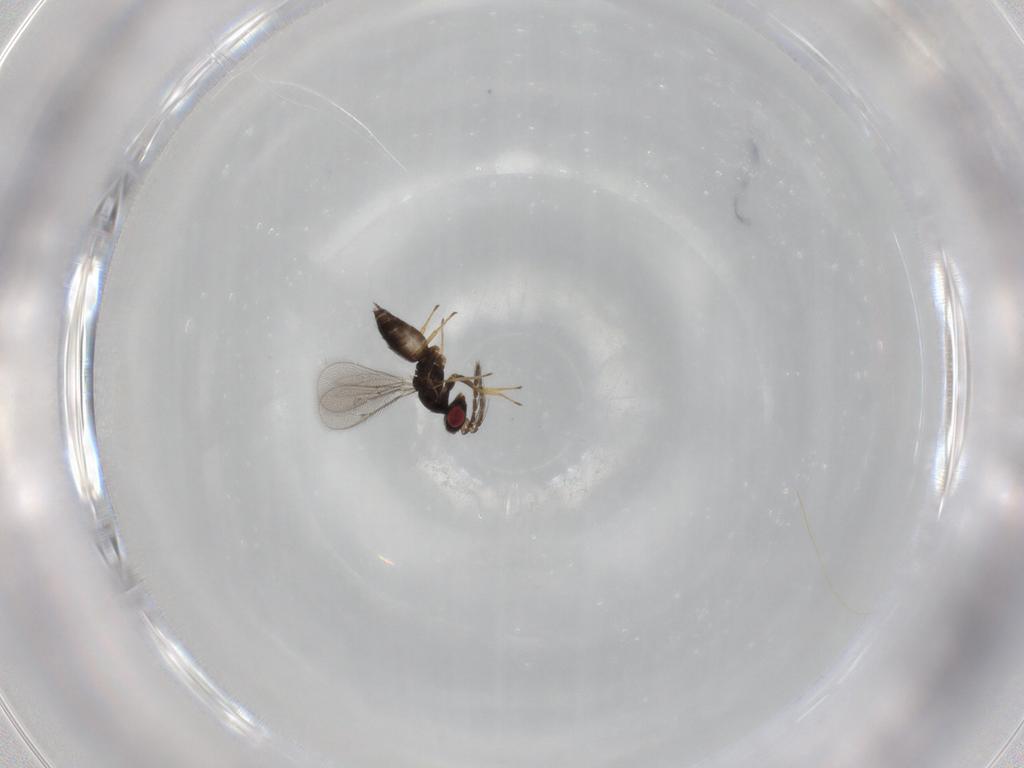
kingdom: Animalia
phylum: Arthropoda
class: Insecta
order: Hymenoptera
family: Eulophidae
